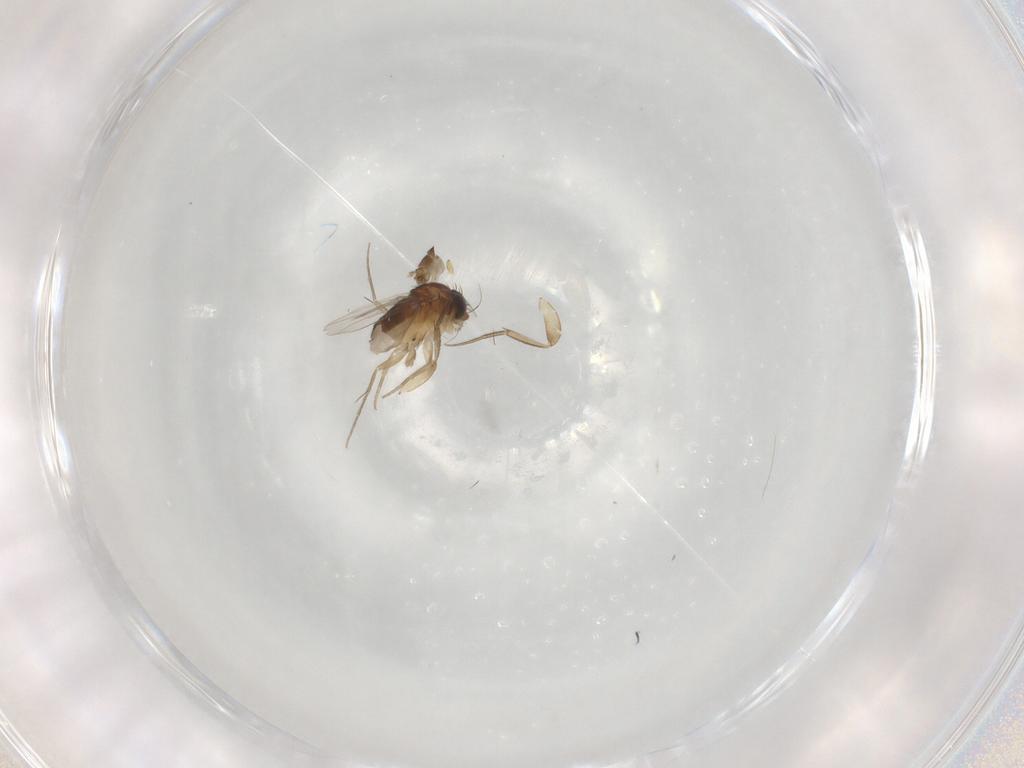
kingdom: Animalia
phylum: Arthropoda
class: Insecta
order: Diptera
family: Phoridae
